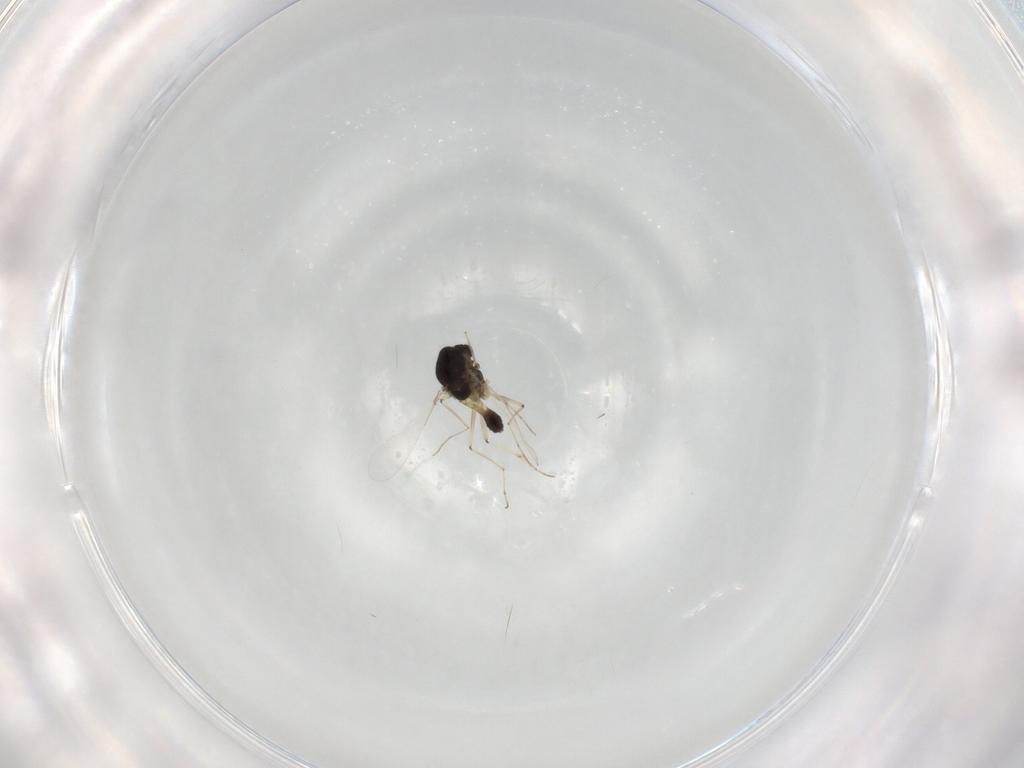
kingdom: Animalia
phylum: Arthropoda
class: Insecta
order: Diptera
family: Chironomidae
